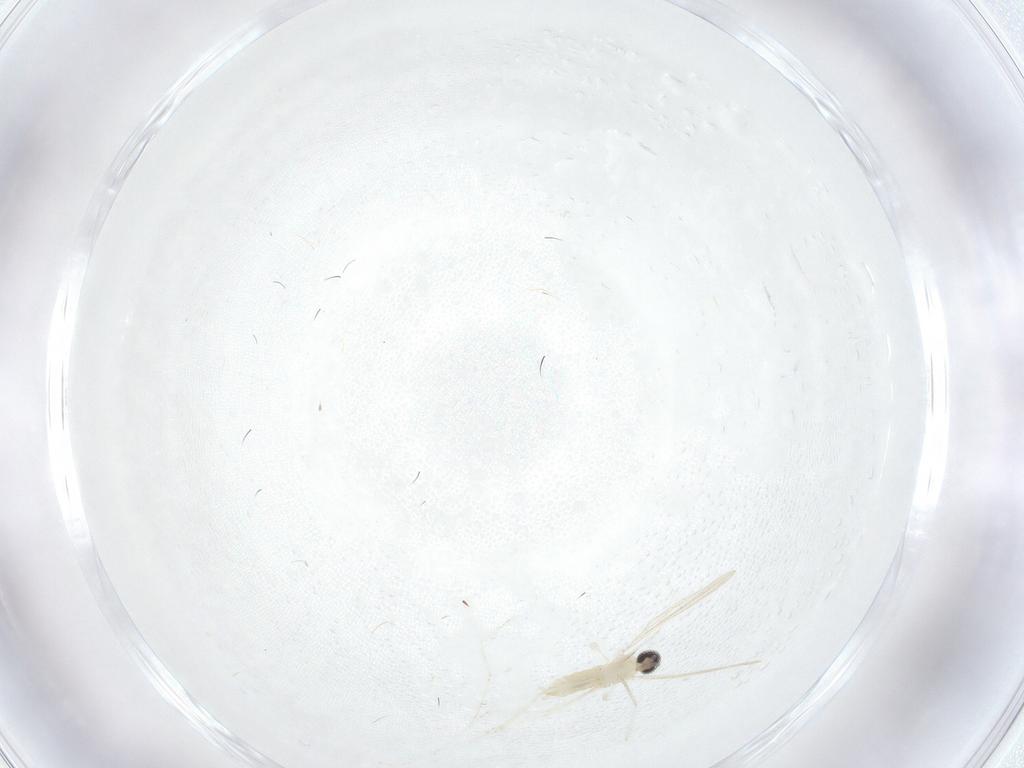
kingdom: Animalia
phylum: Arthropoda
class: Insecta
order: Diptera
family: Cecidomyiidae
